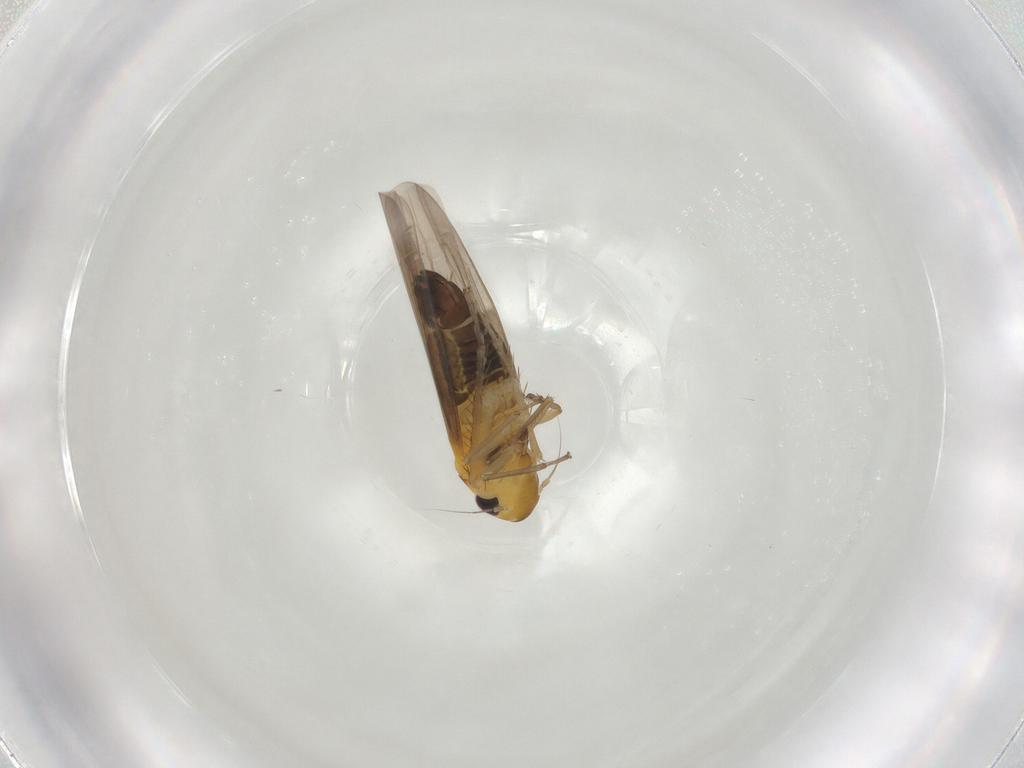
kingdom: Animalia
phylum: Arthropoda
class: Insecta
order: Hemiptera
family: Cicadellidae
